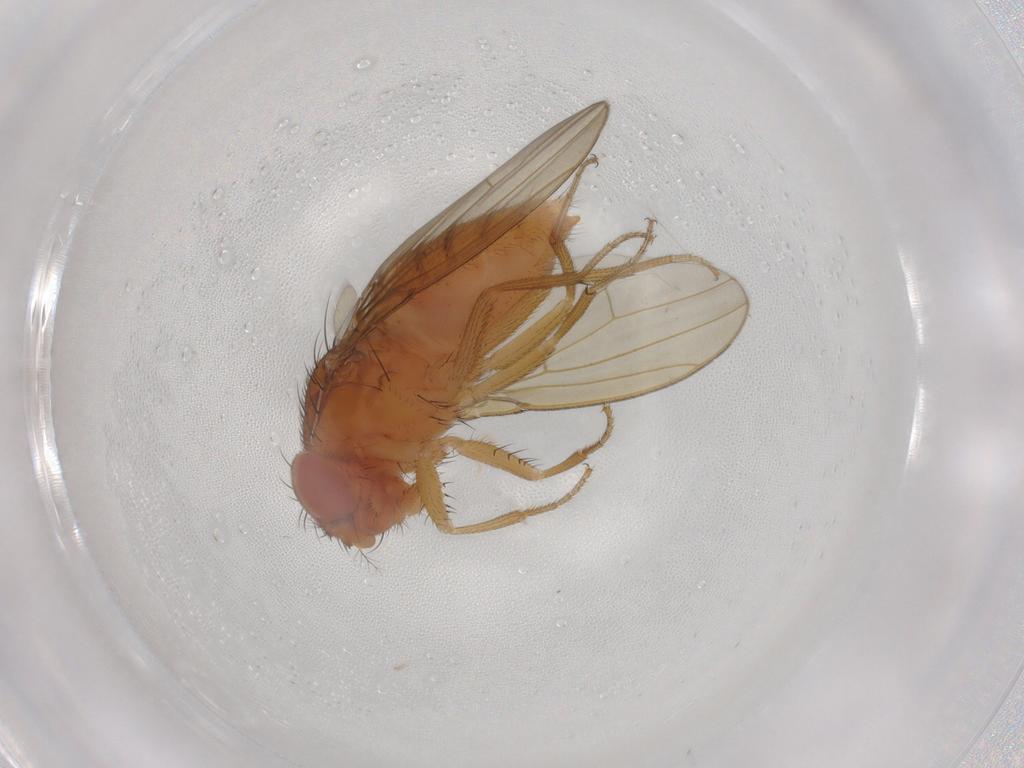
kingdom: Animalia
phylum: Arthropoda
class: Insecta
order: Diptera
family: Drosophilidae
